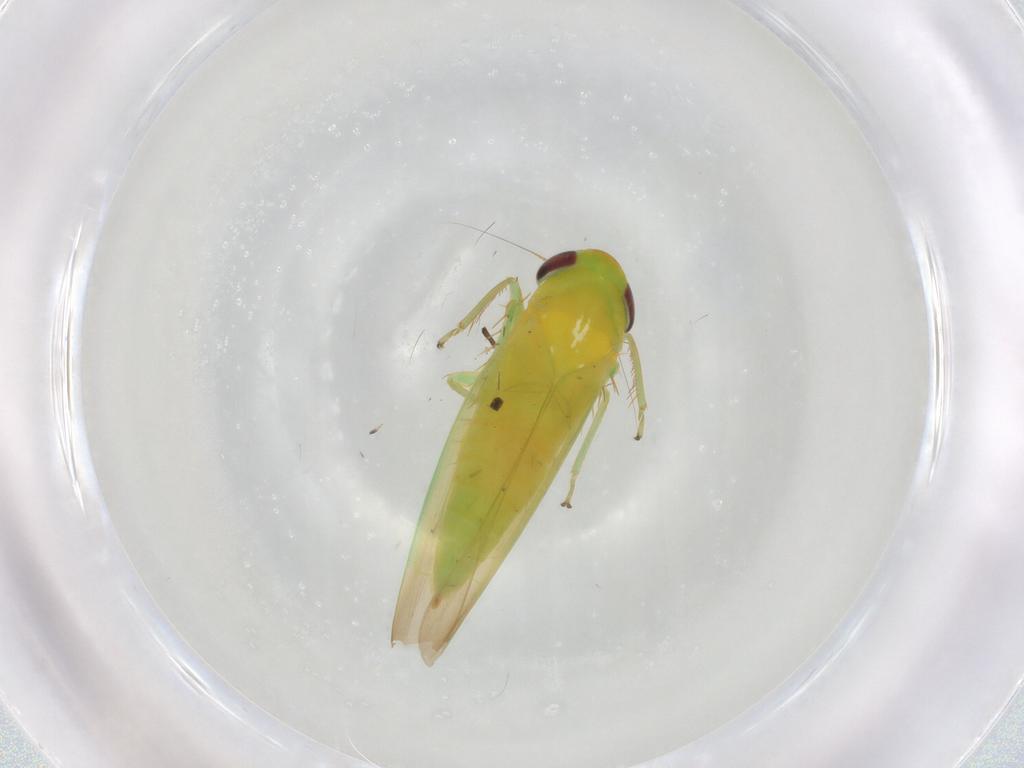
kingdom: Animalia
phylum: Arthropoda
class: Insecta
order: Hemiptera
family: Cicadellidae
